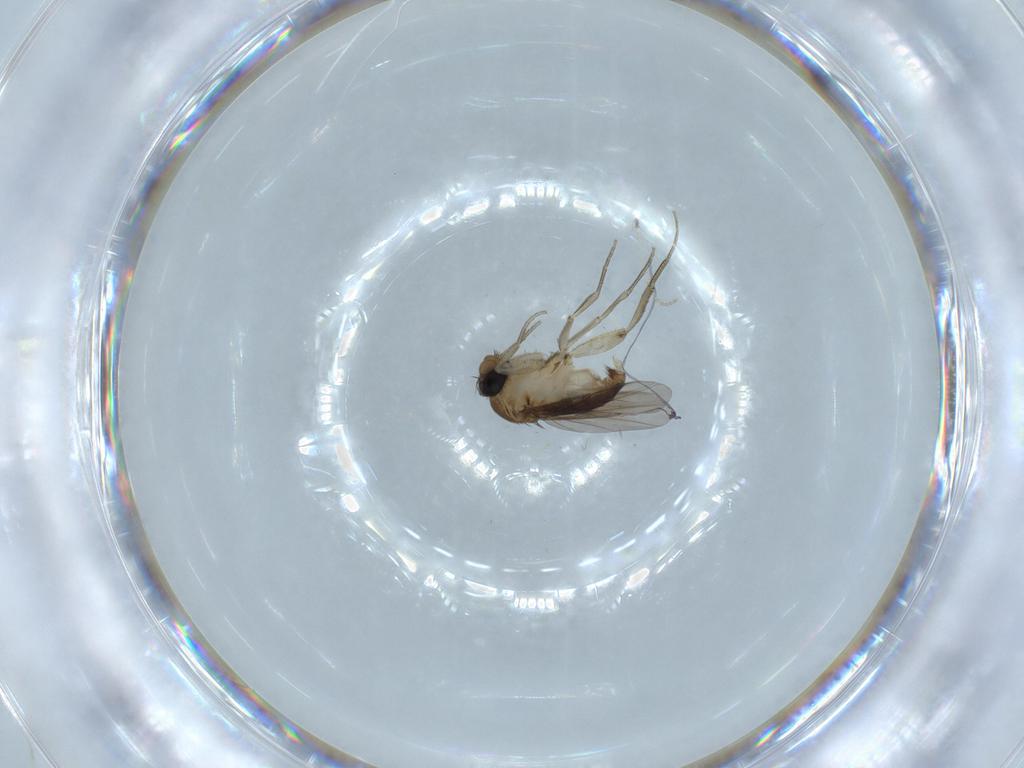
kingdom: Animalia
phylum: Arthropoda
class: Insecta
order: Diptera
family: Phoridae
